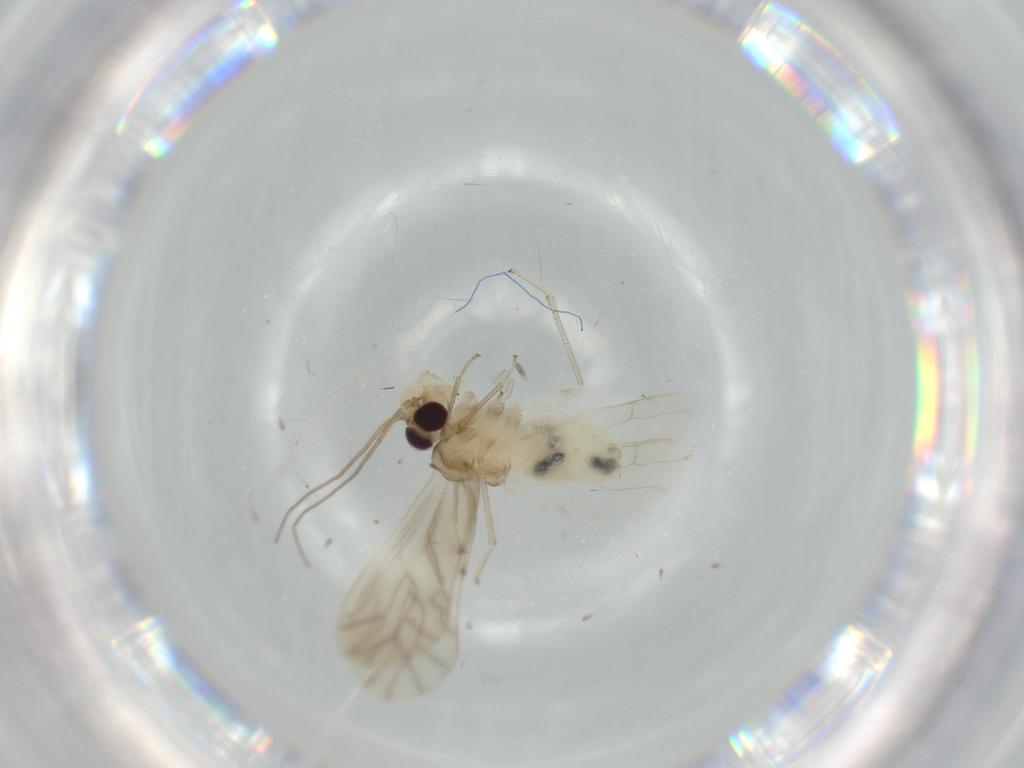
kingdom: Animalia
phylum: Arthropoda
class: Insecta
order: Psocodea
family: Caeciliusidae
